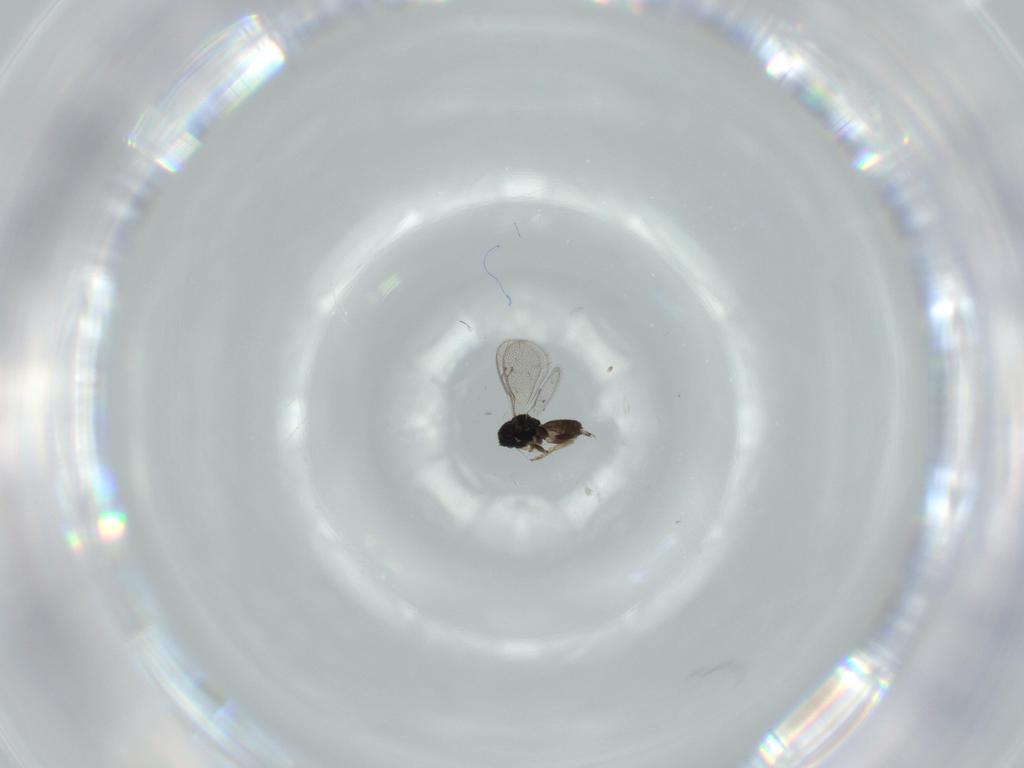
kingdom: Animalia
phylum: Arthropoda
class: Insecta
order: Hymenoptera
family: Pteromalidae
